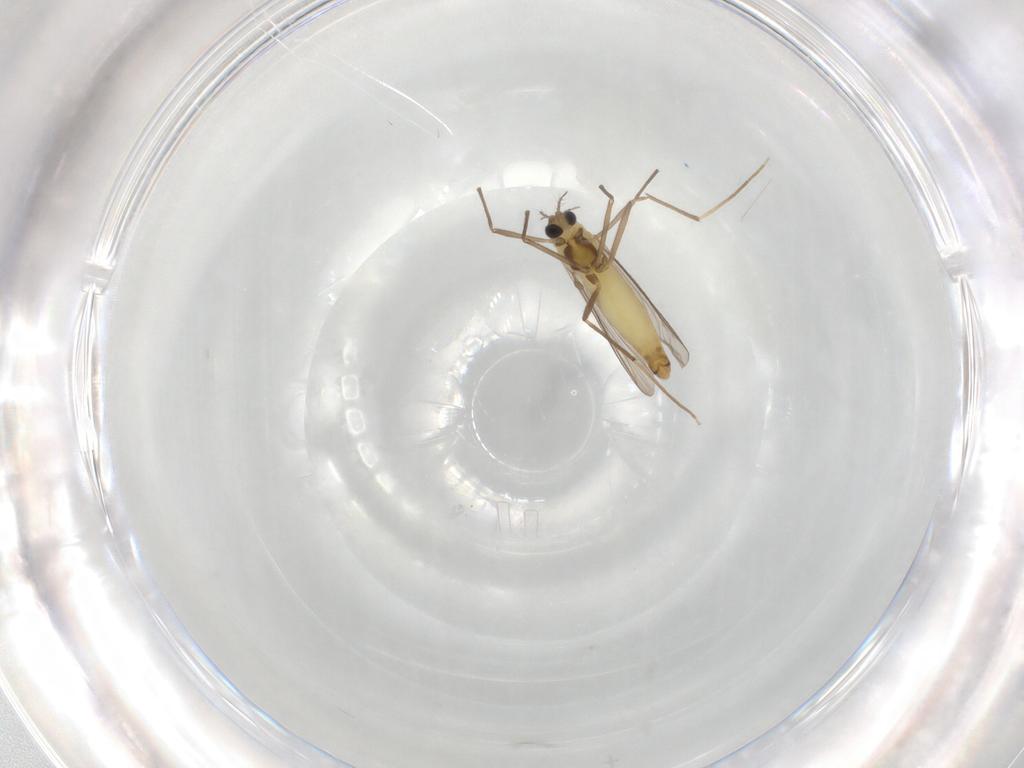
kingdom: Animalia
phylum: Arthropoda
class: Insecta
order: Diptera
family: Chironomidae
